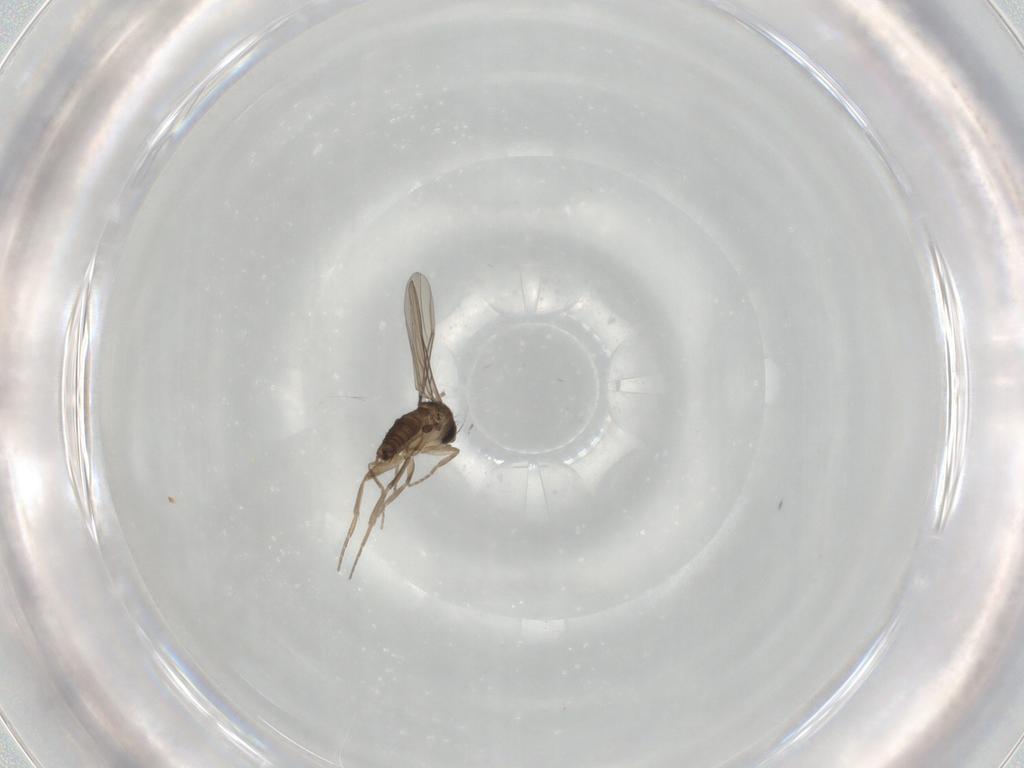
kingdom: Animalia
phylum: Arthropoda
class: Insecta
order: Diptera
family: Phoridae
